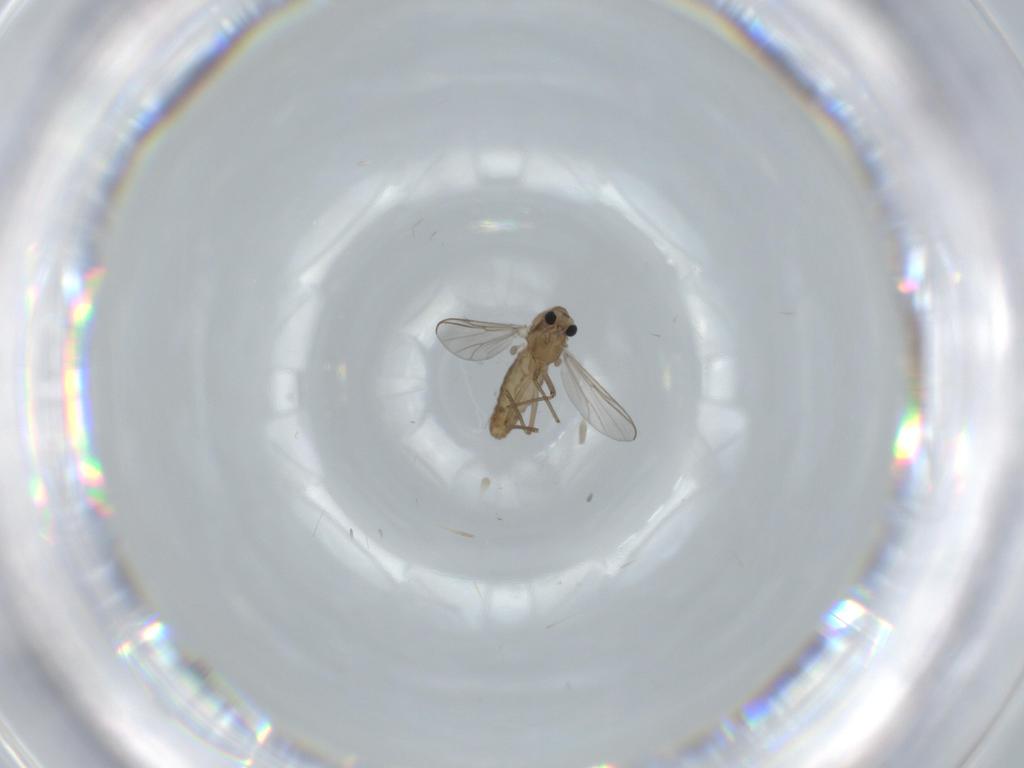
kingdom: Animalia
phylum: Arthropoda
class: Insecta
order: Diptera
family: Chironomidae
